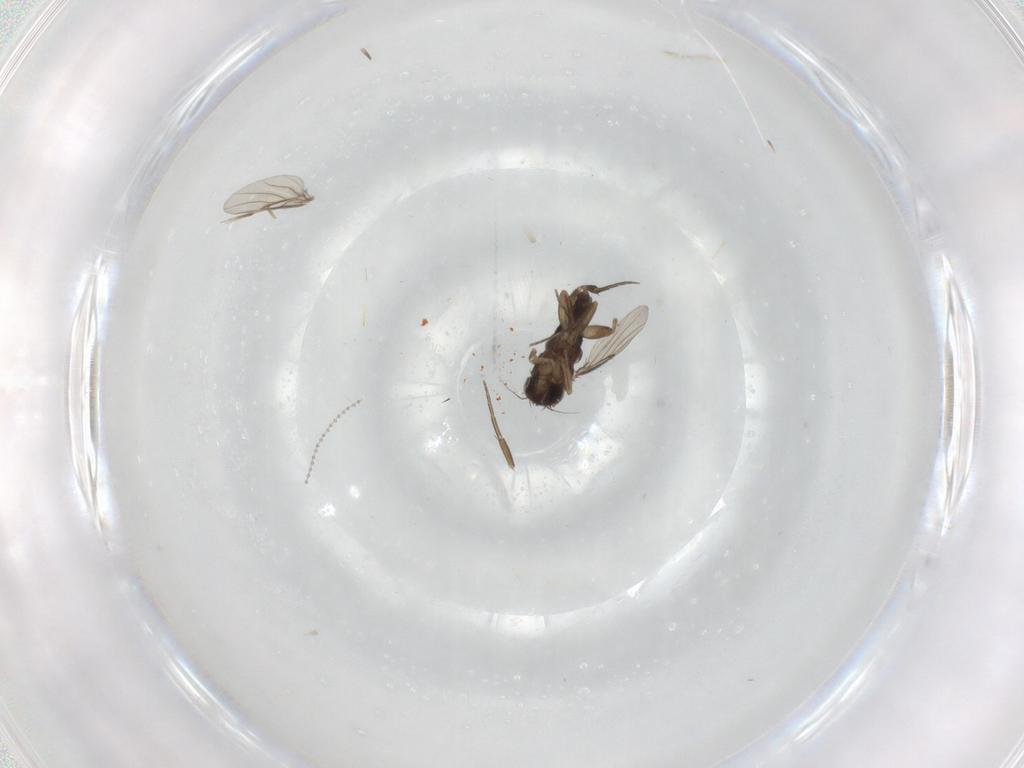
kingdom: Animalia
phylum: Arthropoda
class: Insecta
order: Diptera
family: Phoridae
